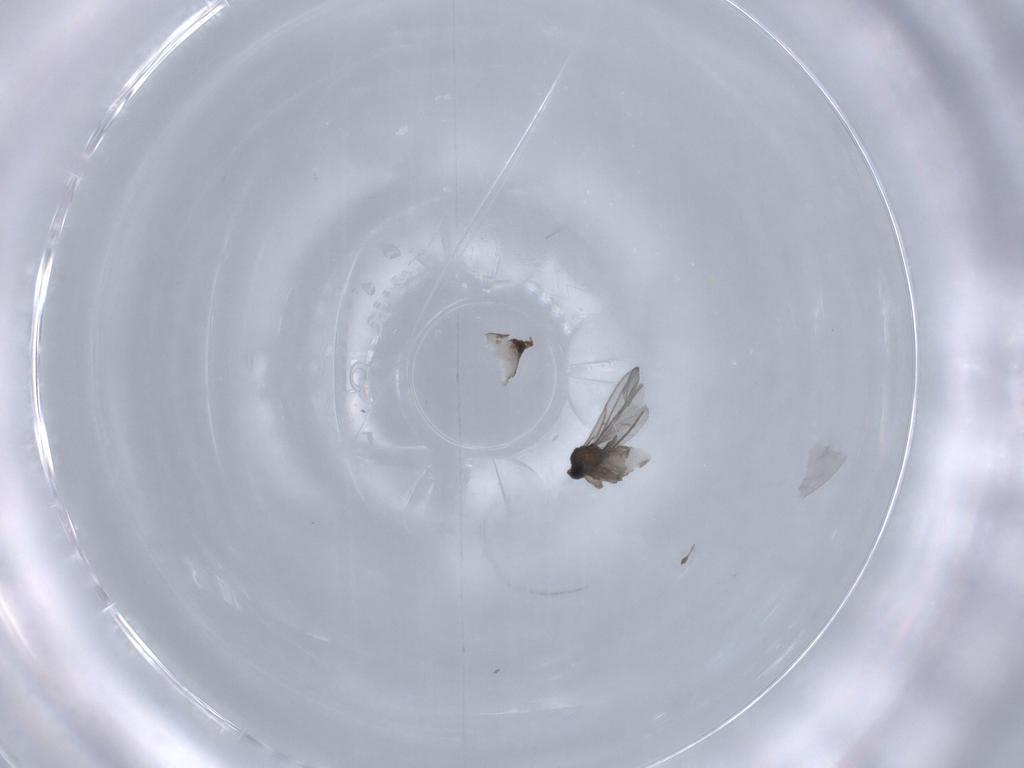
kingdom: Animalia
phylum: Arthropoda
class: Insecta
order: Diptera
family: Sciaridae
